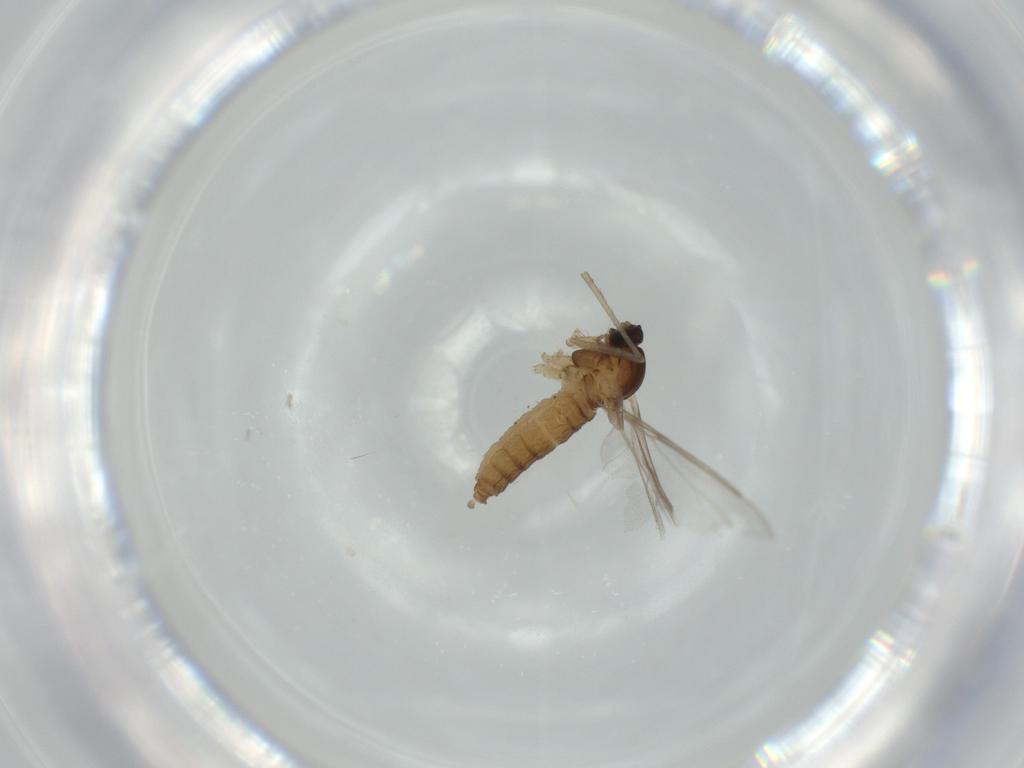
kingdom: Animalia
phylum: Arthropoda
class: Insecta
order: Diptera
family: Cecidomyiidae
